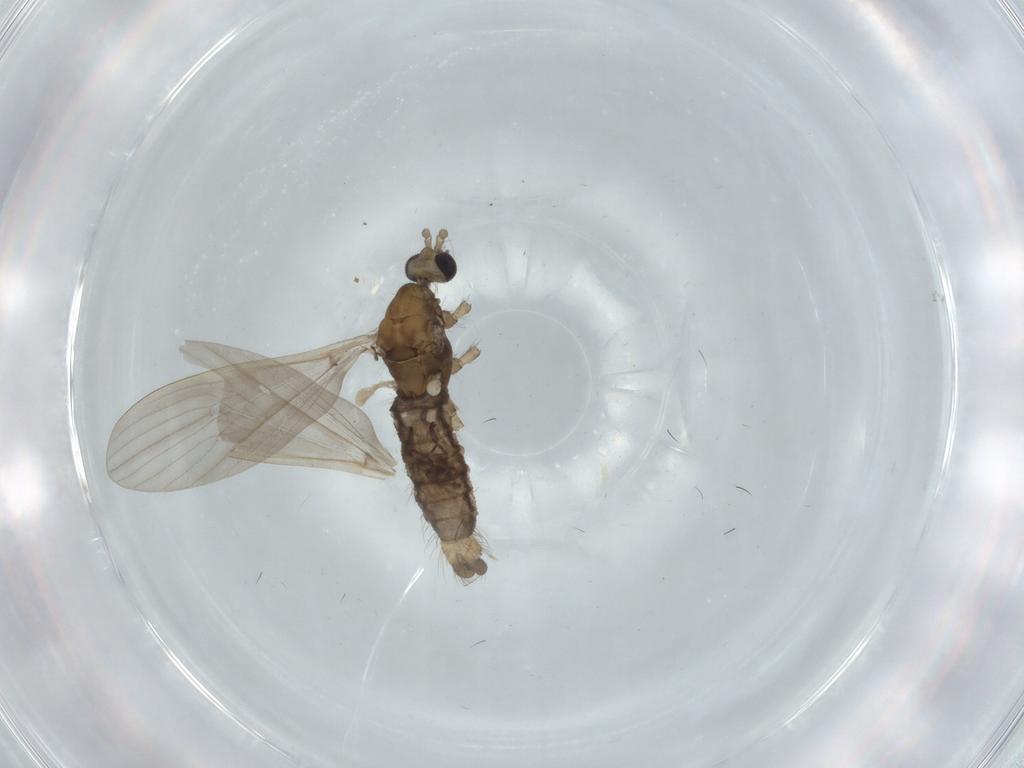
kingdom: Animalia
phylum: Arthropoda
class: Insecta
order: Diptera
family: Limoniidae
